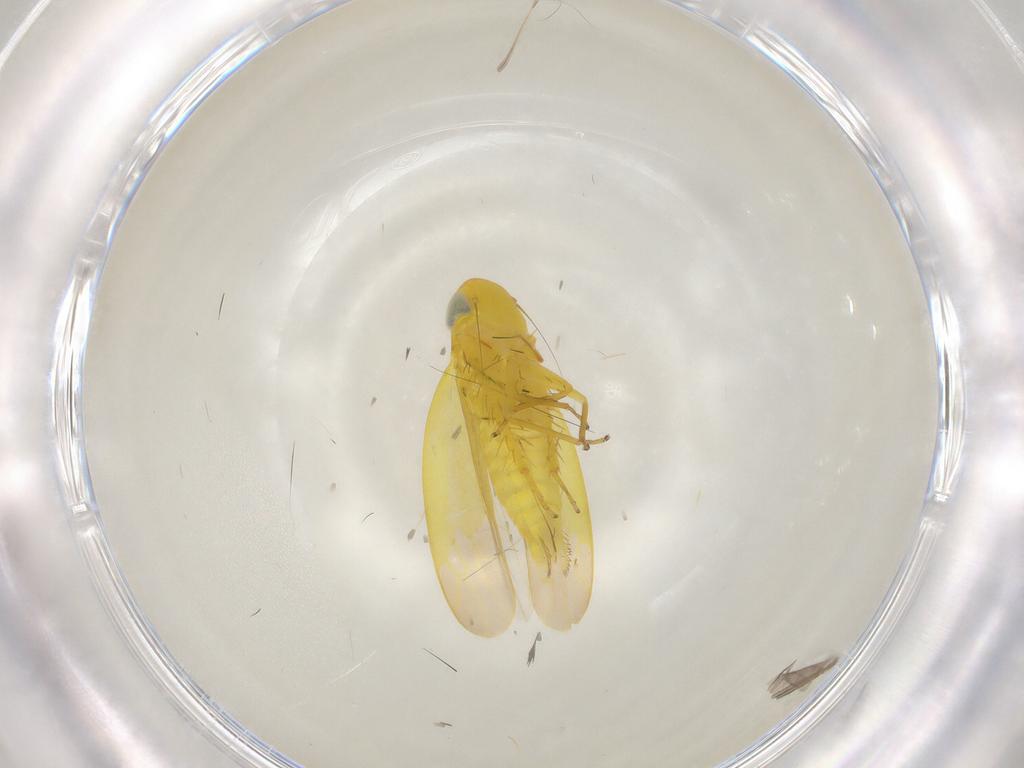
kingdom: Animalia
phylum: Arthropoda
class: Insecta
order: Hemiptera
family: Cicadellidae
